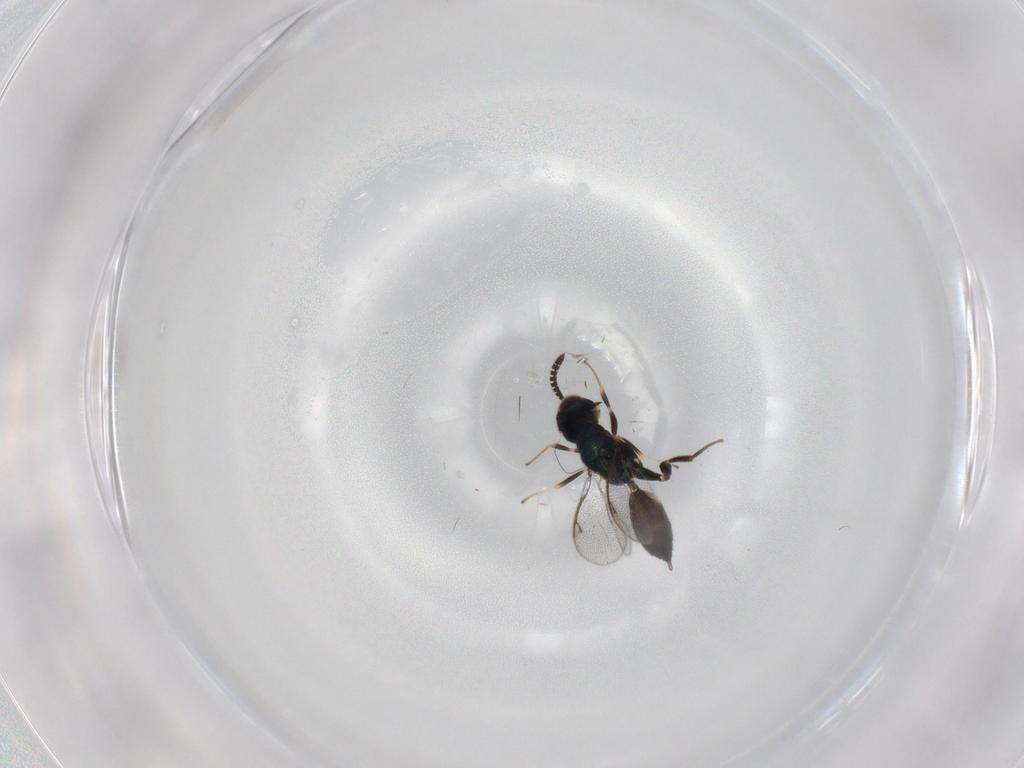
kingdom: Animalia
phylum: Arthropoda
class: Insecta
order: Hymenoptera
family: Cleonyminae
